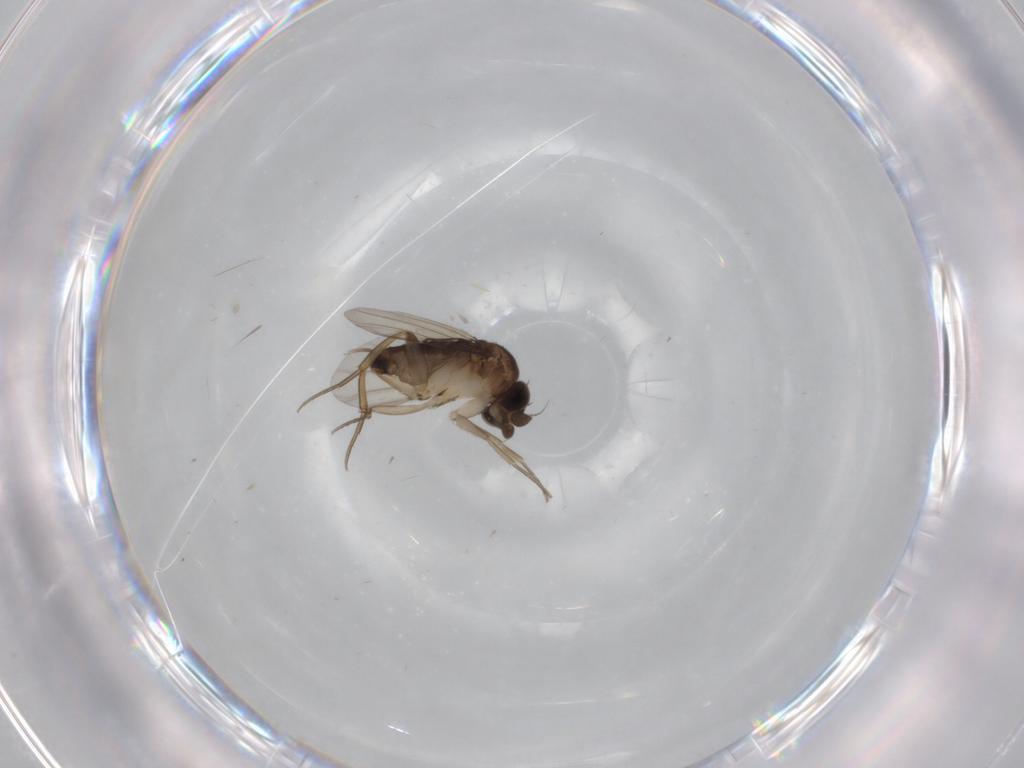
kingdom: Animalia
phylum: Arthropoda
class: Insecta
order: Diptera
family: Phoridae
